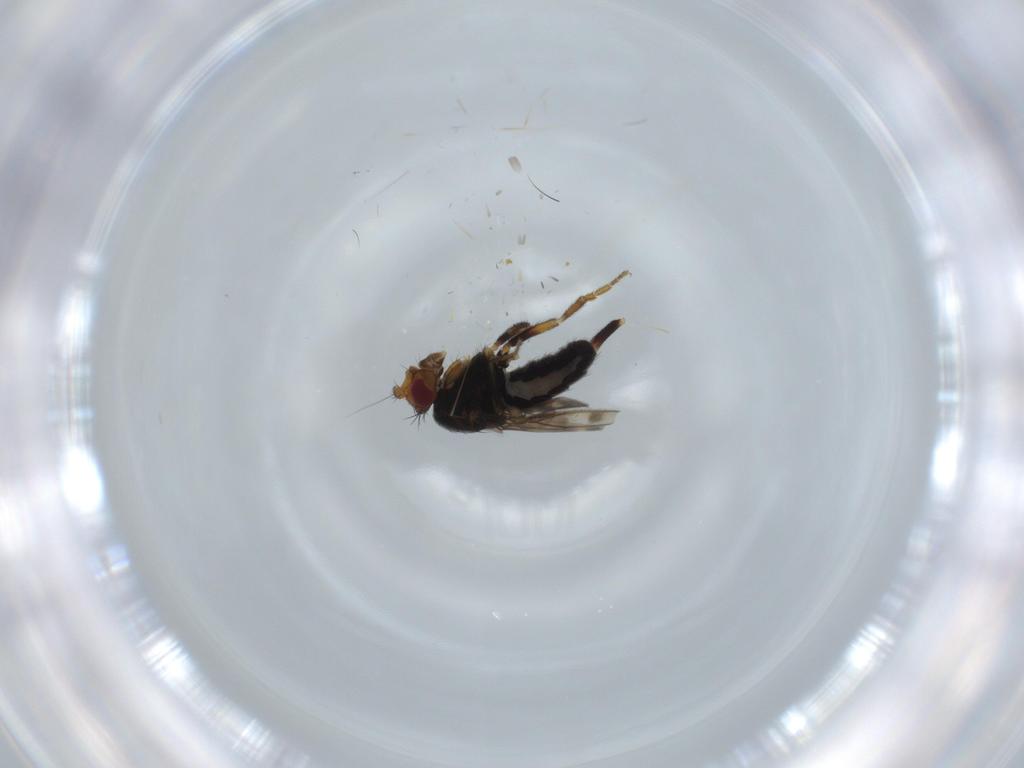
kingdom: Animalia
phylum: Arthropoda
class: Insecta
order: Diptera
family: Sphaeroceridae
